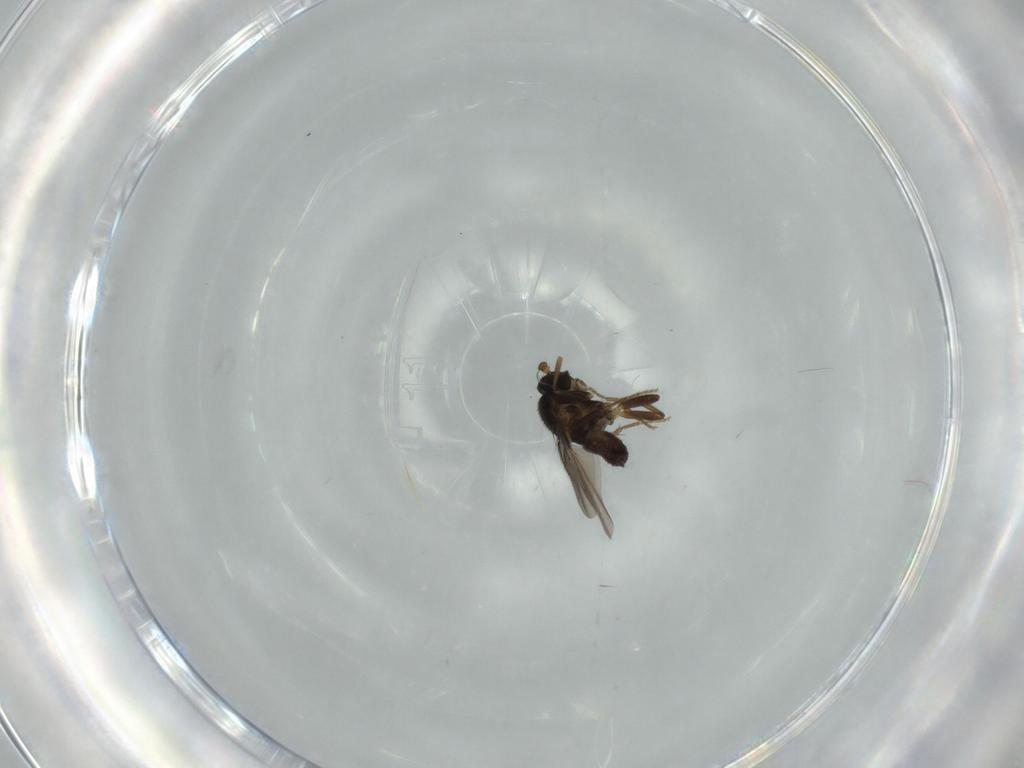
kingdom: Animalia
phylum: Arthropoda
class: Insecta
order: Diptera
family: Sphaeroceridae
